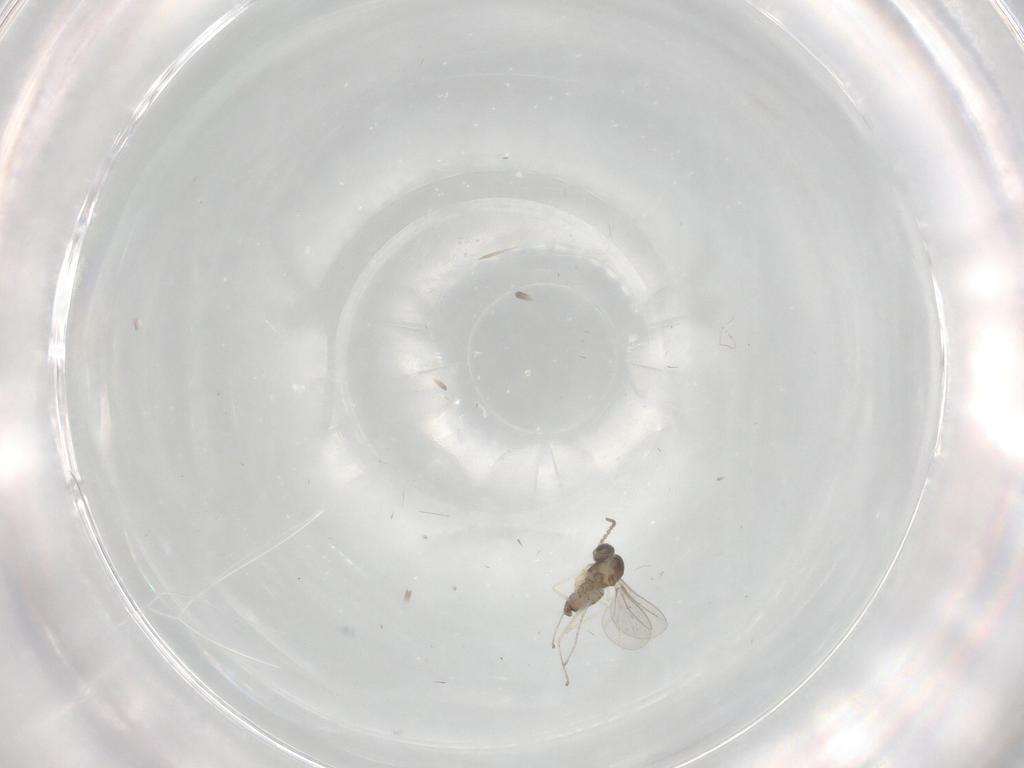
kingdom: Animalia
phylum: Arthropoda
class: Insecta
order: Diptera
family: Cecidomyiidae
